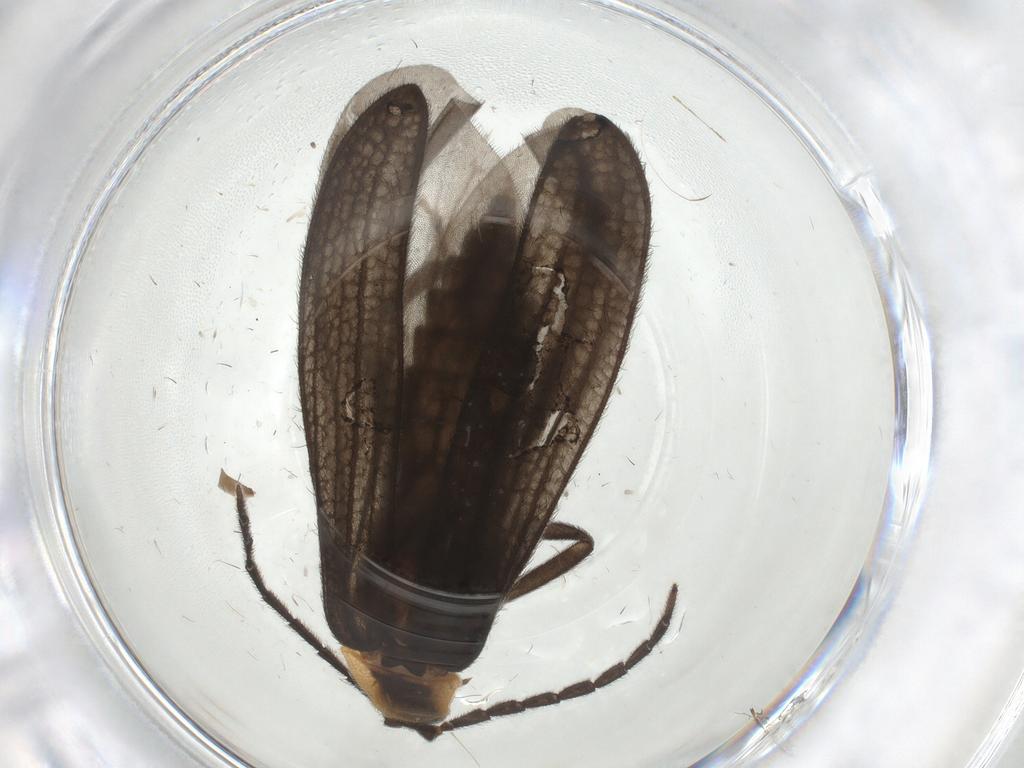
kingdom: Animalia
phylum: Arthropoda
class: Insecta
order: Coleoptera
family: Lycidae
